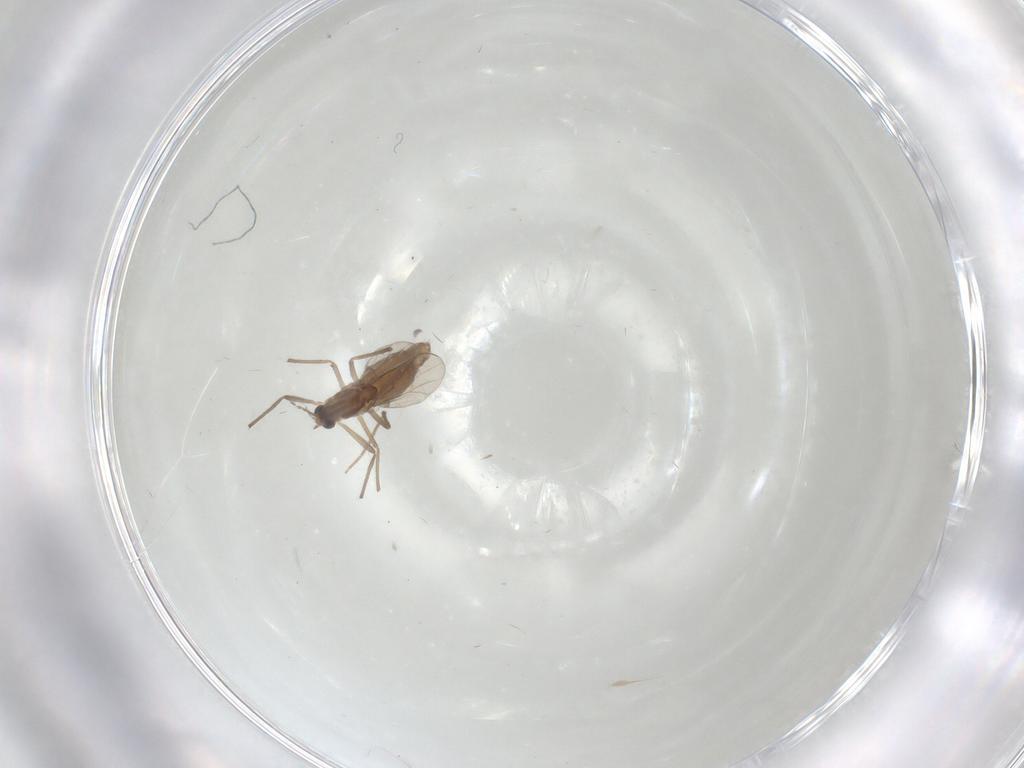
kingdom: Animalia
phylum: Arthropoda
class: Insecta
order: Diptera
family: Chironomidae
